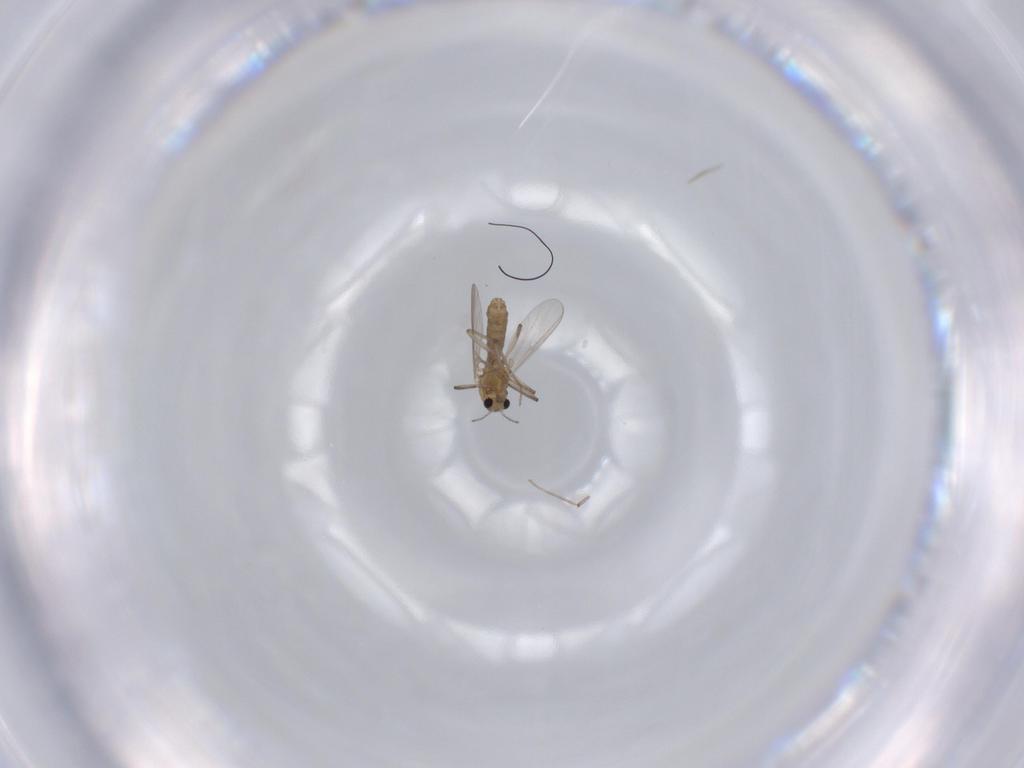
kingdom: Animalia
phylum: Arthropoda
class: Insecta
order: Diptera
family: Chironomidae
